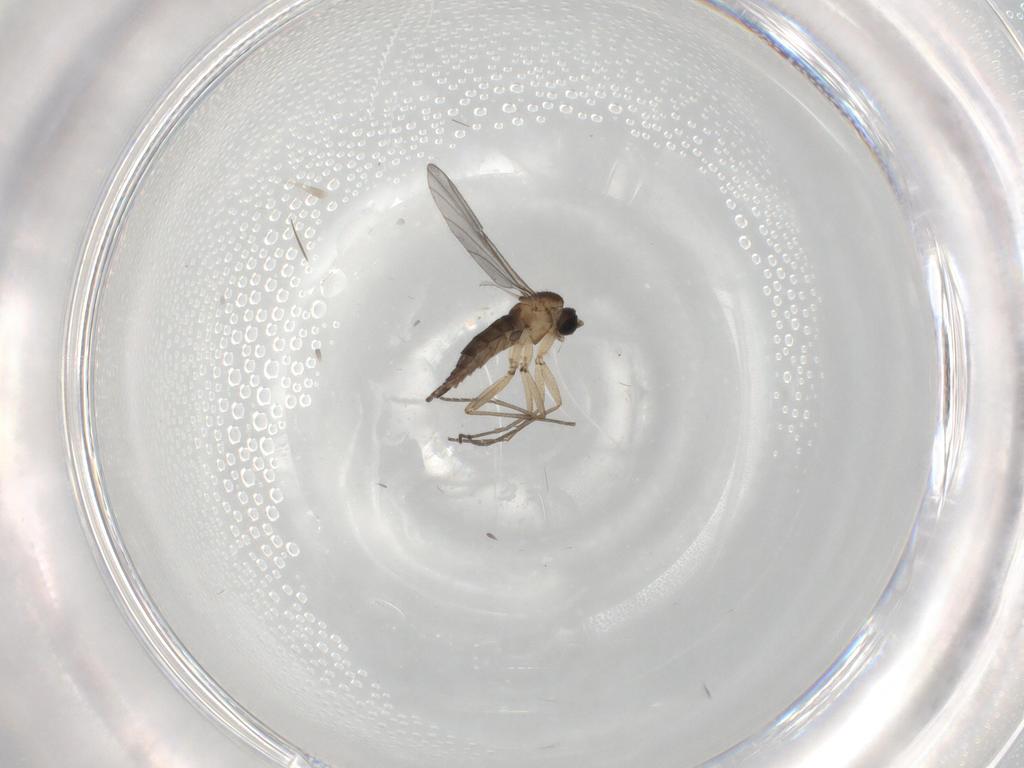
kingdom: Animalia
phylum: Arthropoda
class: Insecta
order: Diptera
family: Sciaridae
